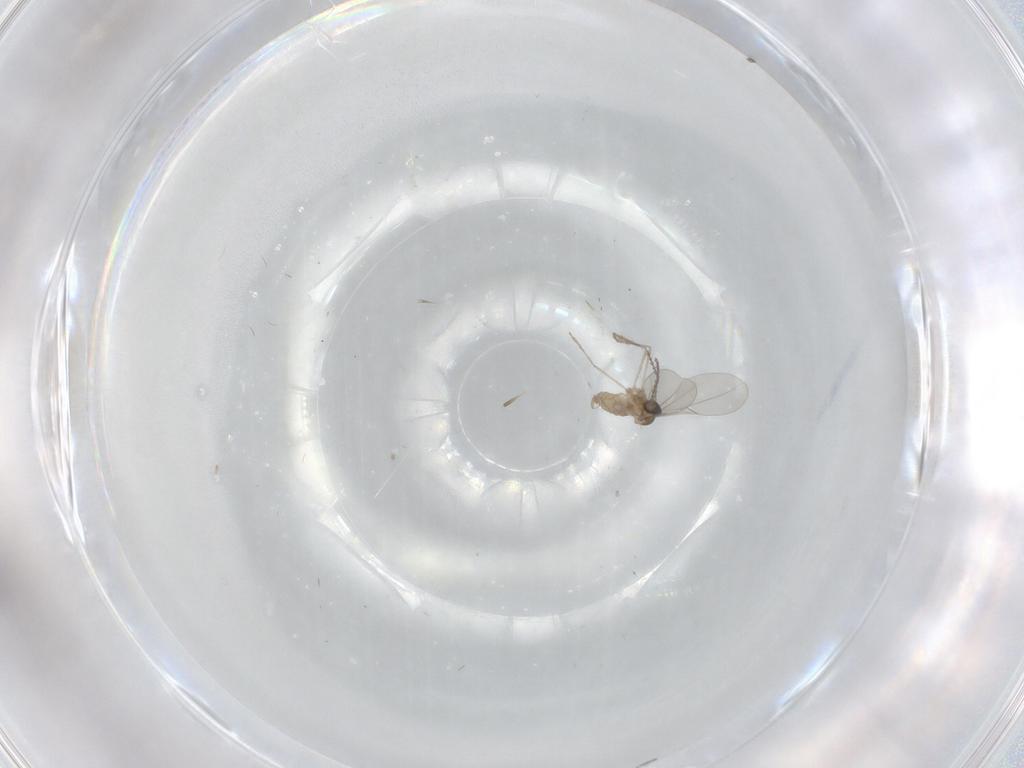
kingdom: Animalia
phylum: Arthropoda
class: Insecta
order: Diptera
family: Cecidomyiidae
